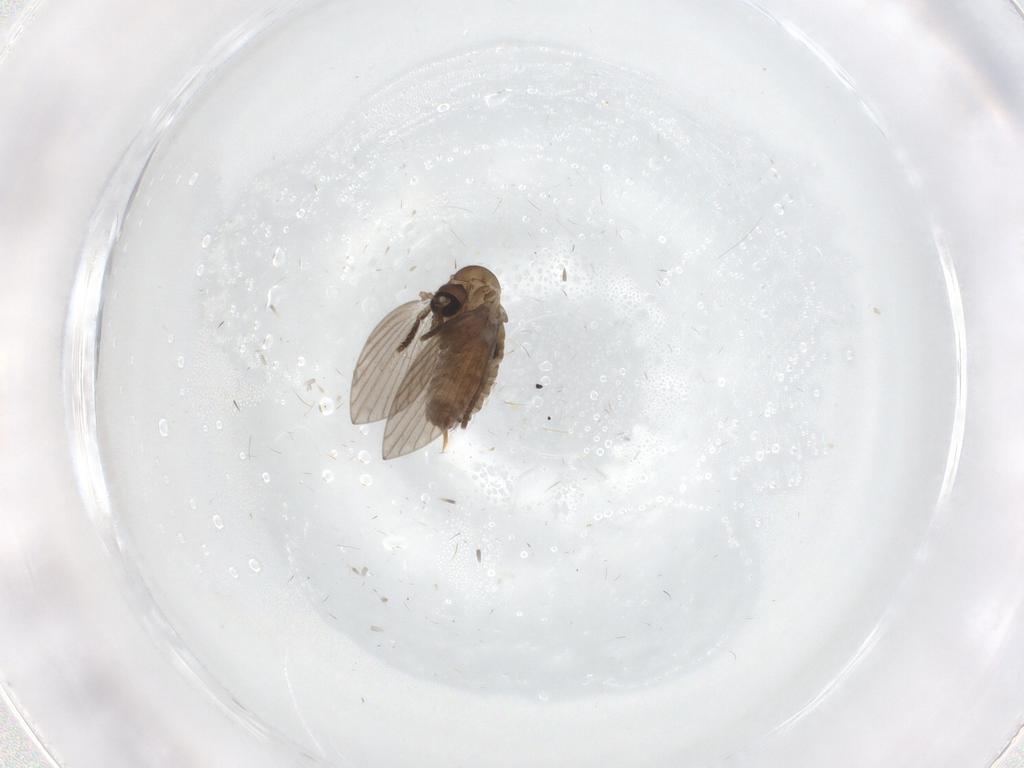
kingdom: Animalia
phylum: Arthropoda
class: Insecta
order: Diptera
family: Psychodidae
